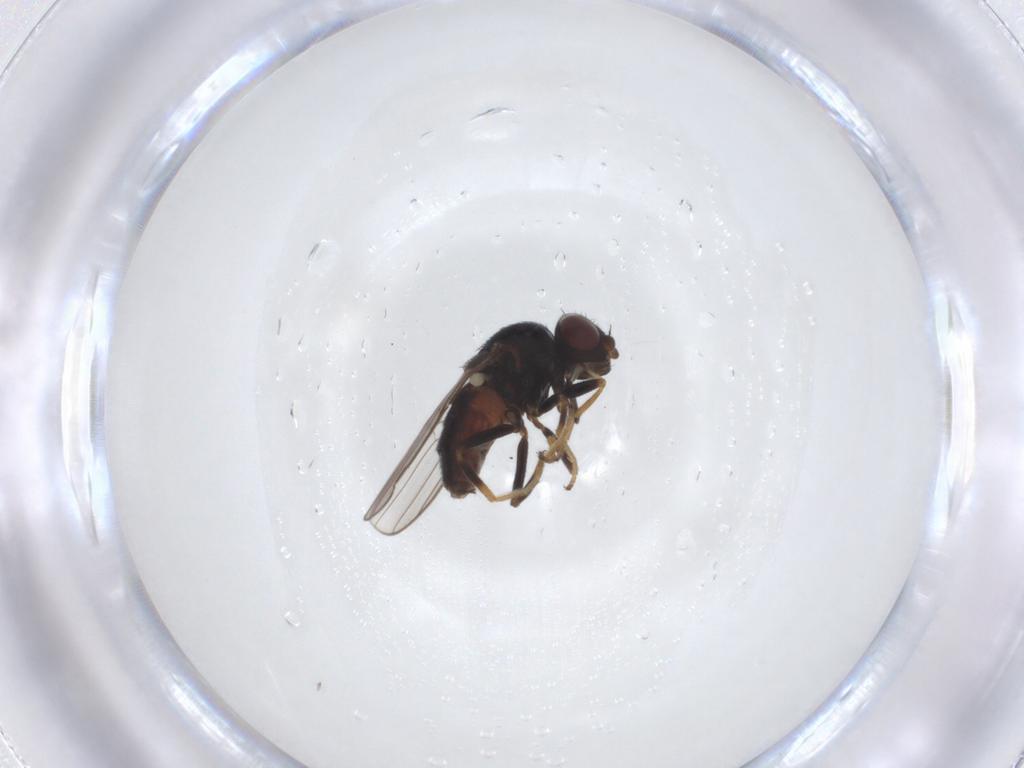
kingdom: Animalia
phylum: Arthropoda
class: Insecta
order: Diptera
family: Chloropidae
